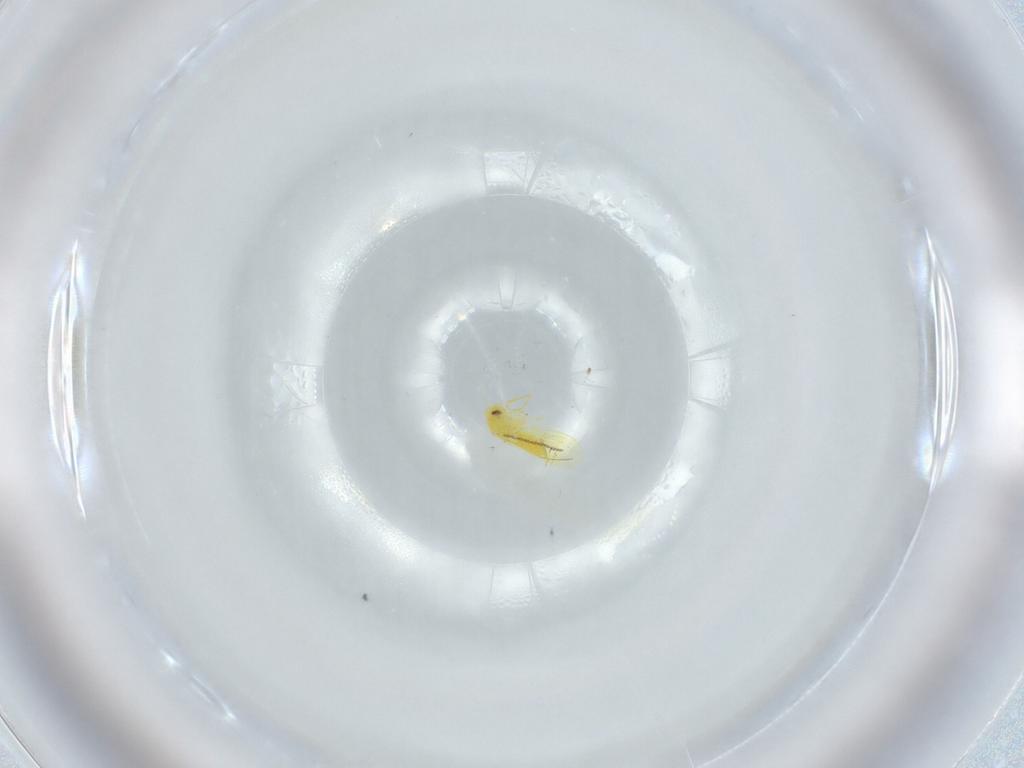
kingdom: Animalia
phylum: Arthropoda
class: Insecta
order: Hemiptera
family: Aleyrodidae
